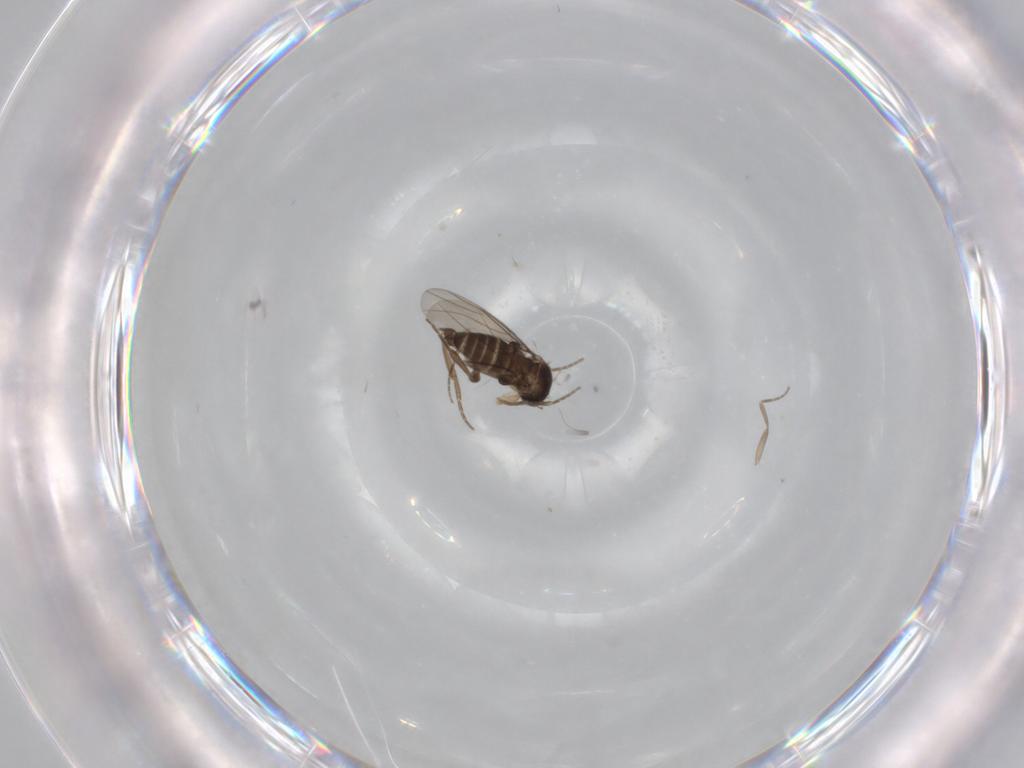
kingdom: Animalia
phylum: Arthropoda
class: Insecta
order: Diptera
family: Phoridae
